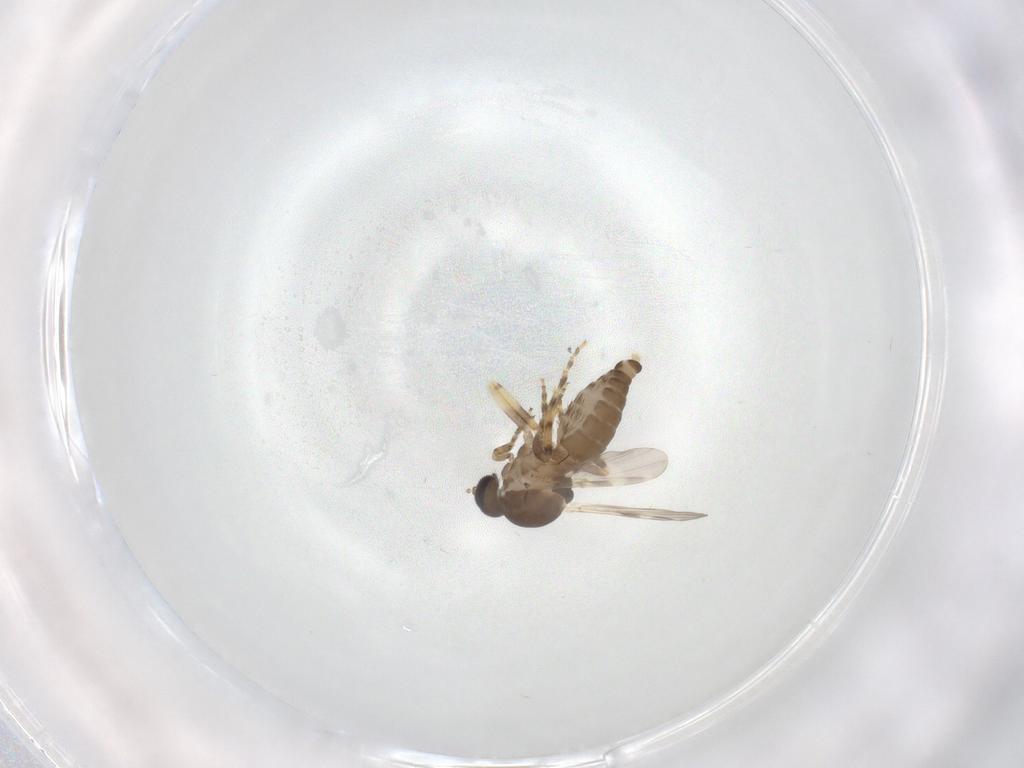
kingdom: Animalia
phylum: Arthropoda
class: Insecta
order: Diptera
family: Ceratopogonidae
